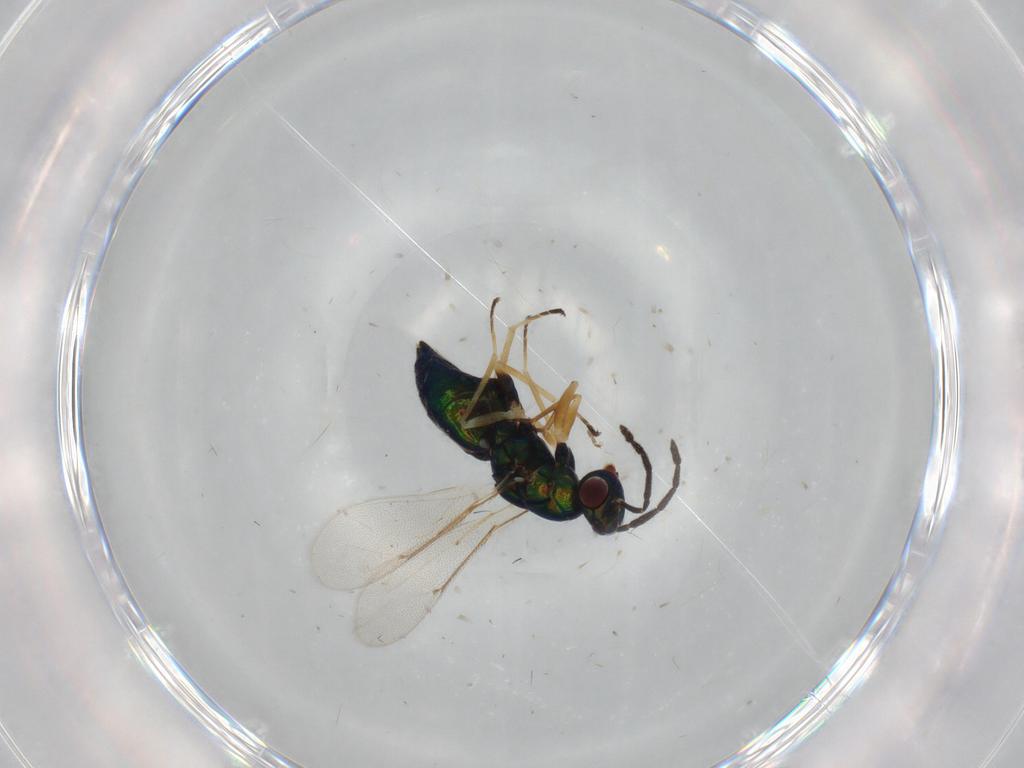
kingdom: Animalia
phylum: Arthropoda
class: Insecta
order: Hymenoptera
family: Eulophidae
